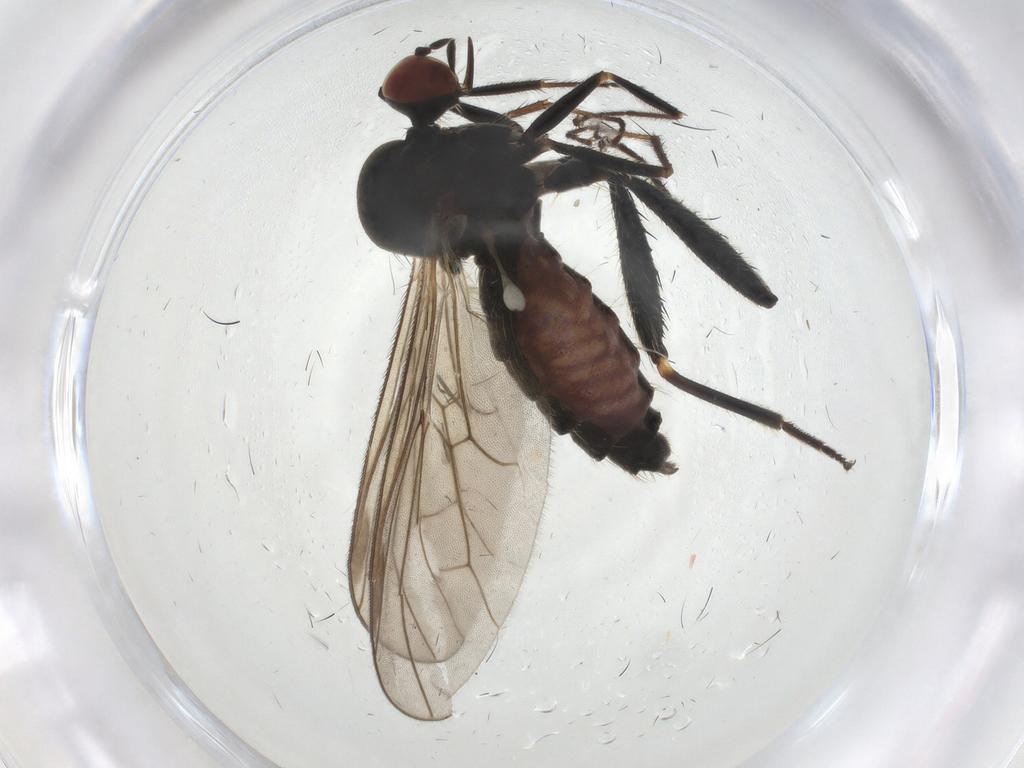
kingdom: Animalia
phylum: Arthropoda
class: Insecta
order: Diptera
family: Hybotidae
